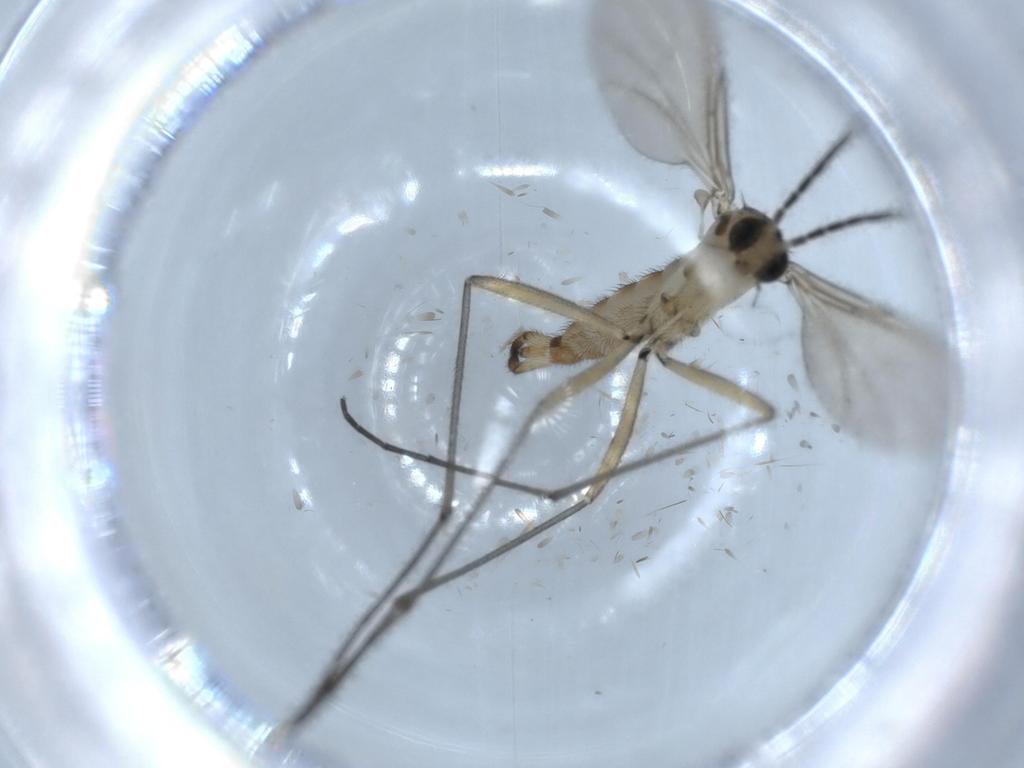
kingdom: Animalia
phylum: Arthropoda
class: Insecta
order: Diptera
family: Sciaridae
